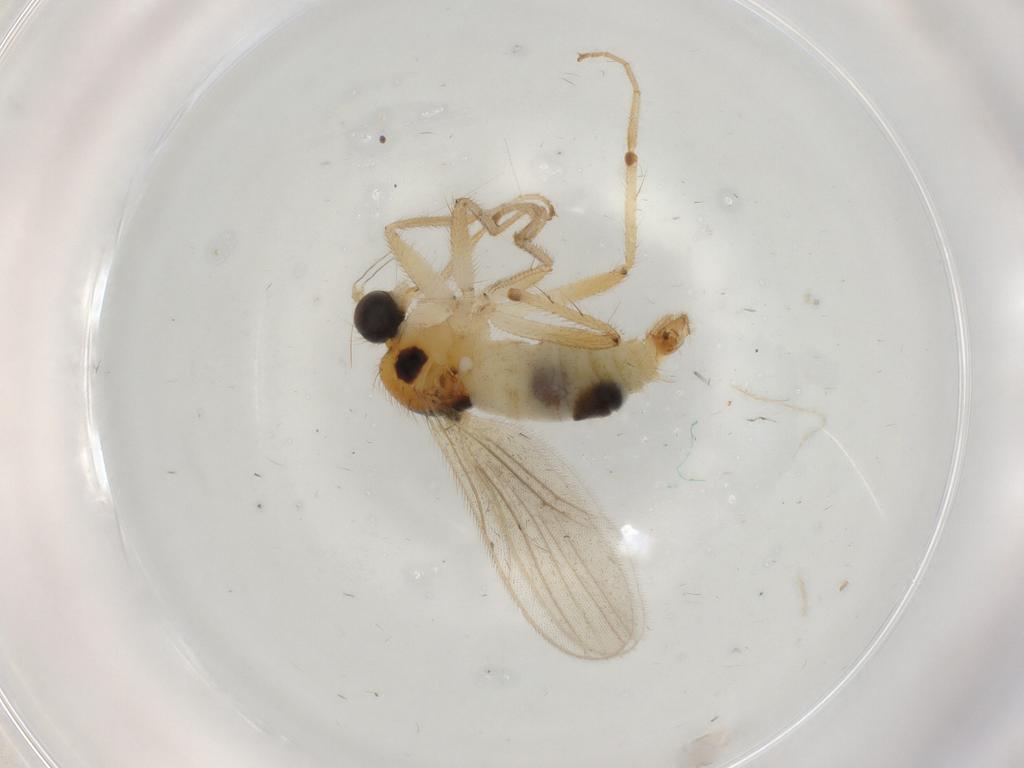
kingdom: Animalia
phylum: Arthropoda
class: Insecta
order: Diptera
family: Hybotidae
